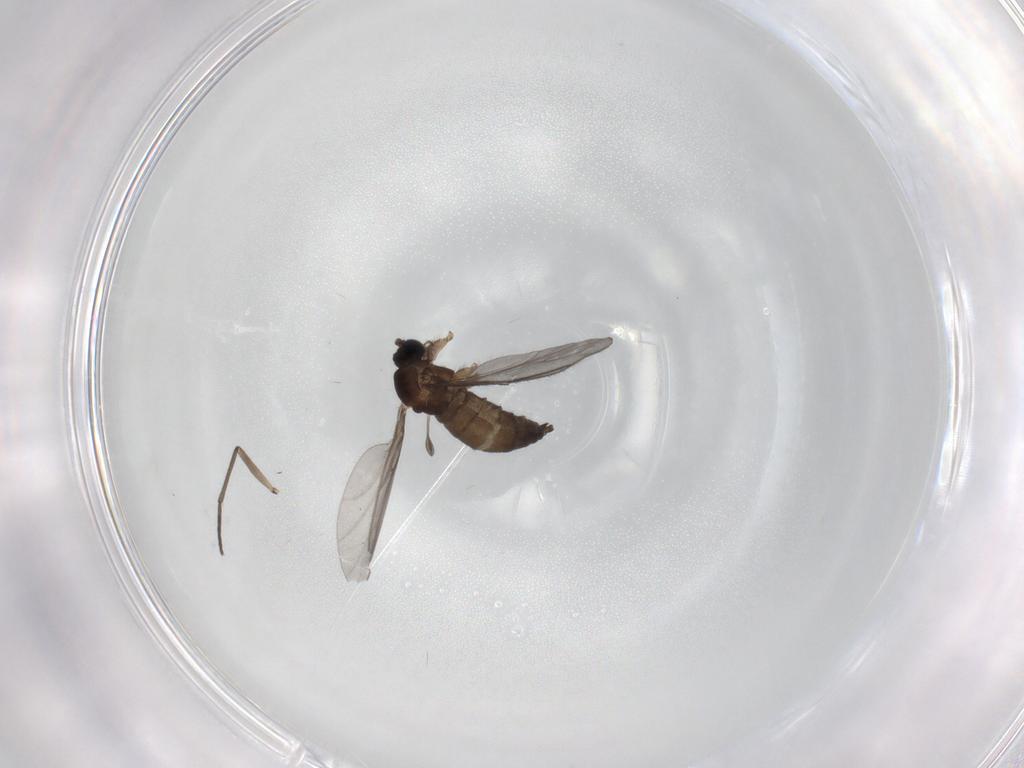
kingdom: Animalia
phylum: Arthropoda
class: Insecta
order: Diptera
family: Sciaridae
